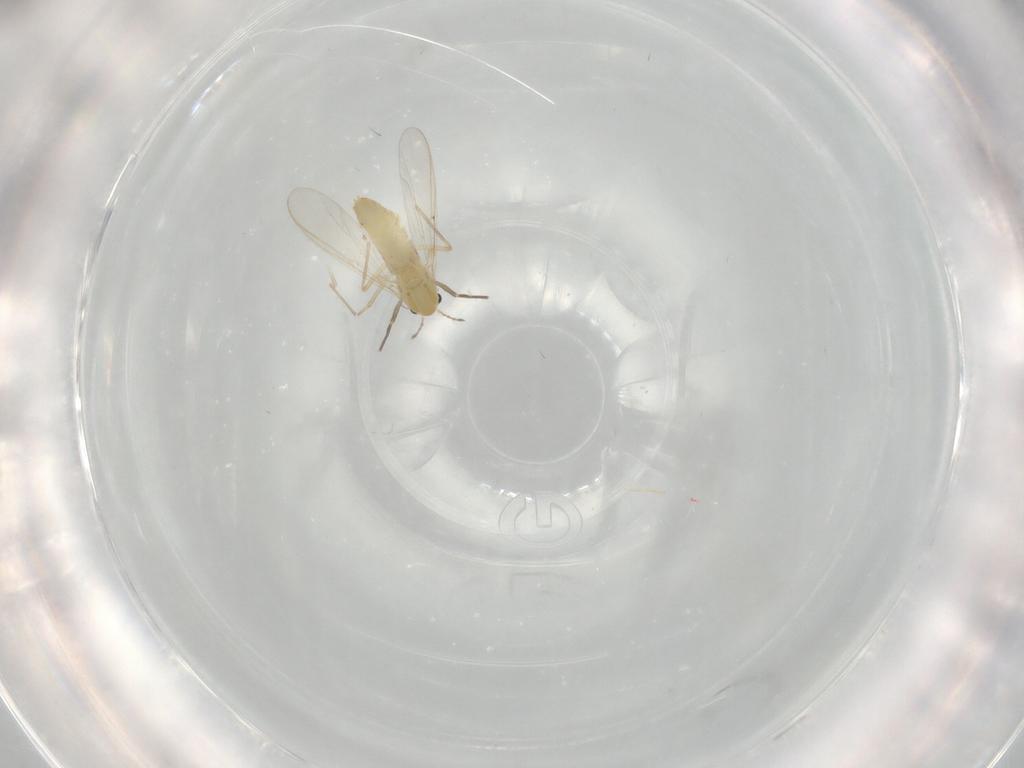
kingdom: Animalia
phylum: Arthropoda
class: Insecta
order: Diptera
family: Chironomidae
